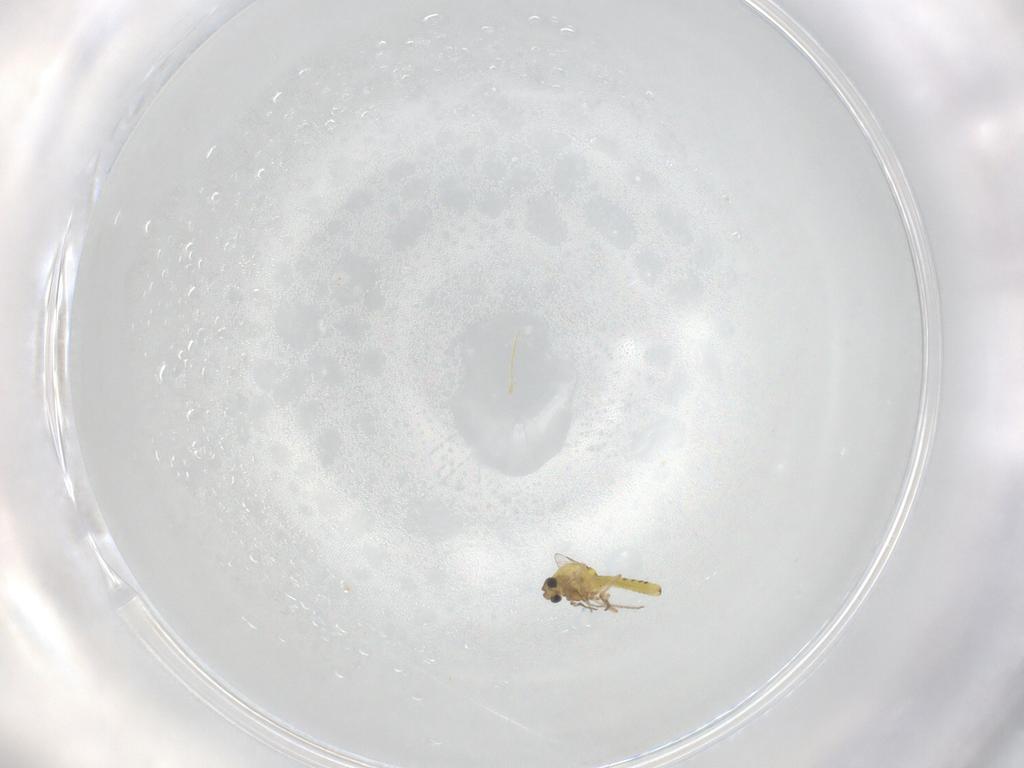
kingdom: Animalia
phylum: Arthropoda
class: Insecta
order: Diptera
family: Ceratopogonidae
